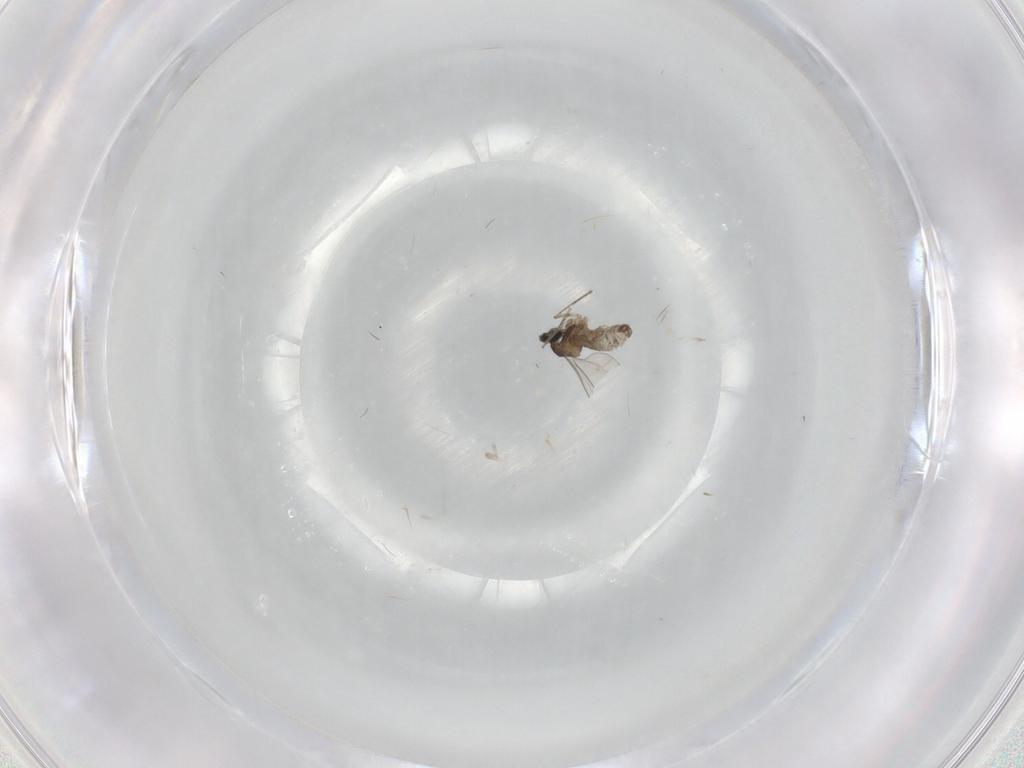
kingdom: Animalia
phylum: Arthropoda
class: Insecta
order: Diptera
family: Cecidomyiidae
